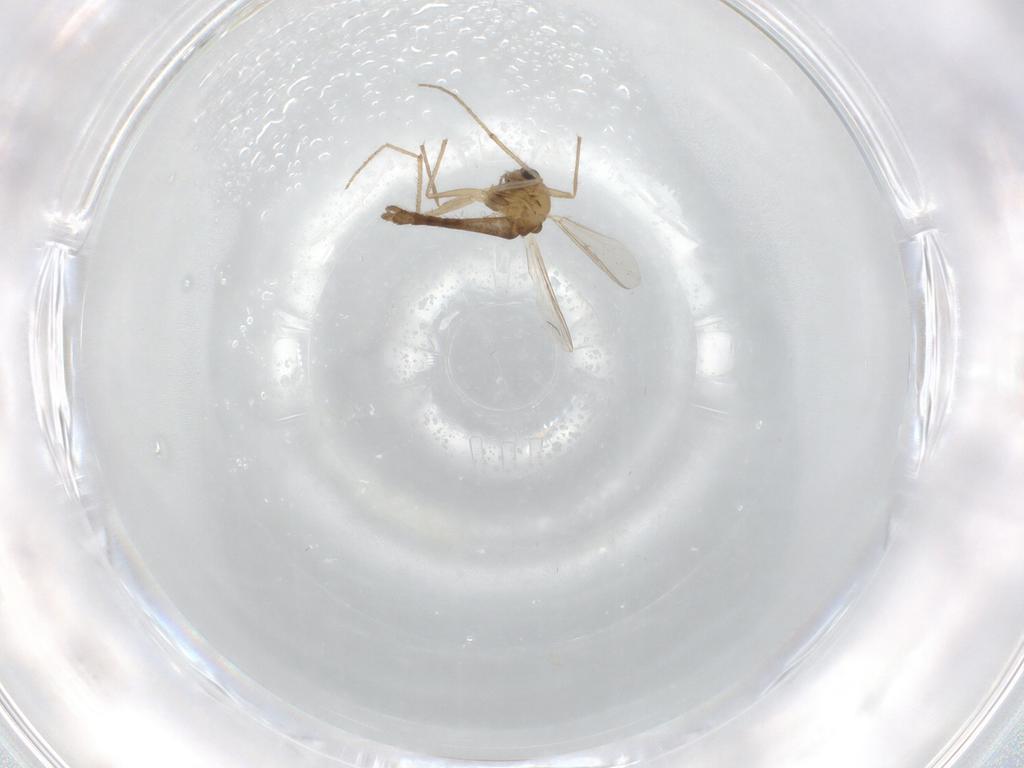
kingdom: Animalia
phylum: Arthropoda
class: Insecta
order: Diptera
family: Chironomidae
